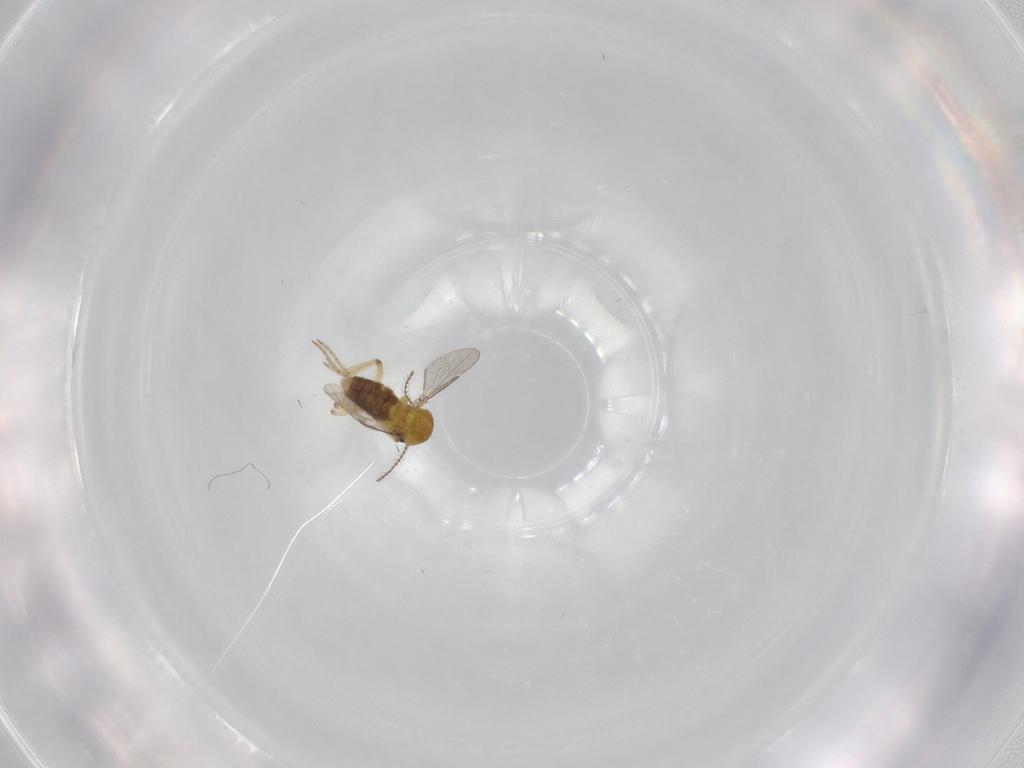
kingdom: Animalia
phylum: Arthropoda
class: Insecta
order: Diptera
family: Ceratopogonidae
